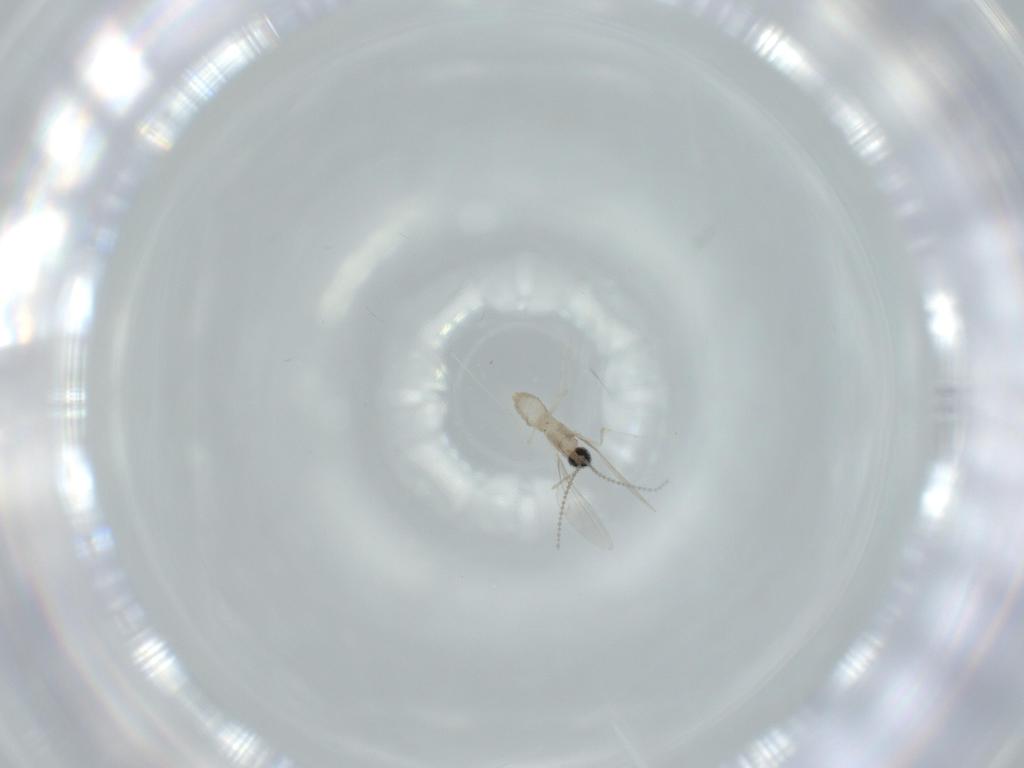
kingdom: Animalia
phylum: Arthropoda
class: Insecta
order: Diptera
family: Cecidomyiidae
